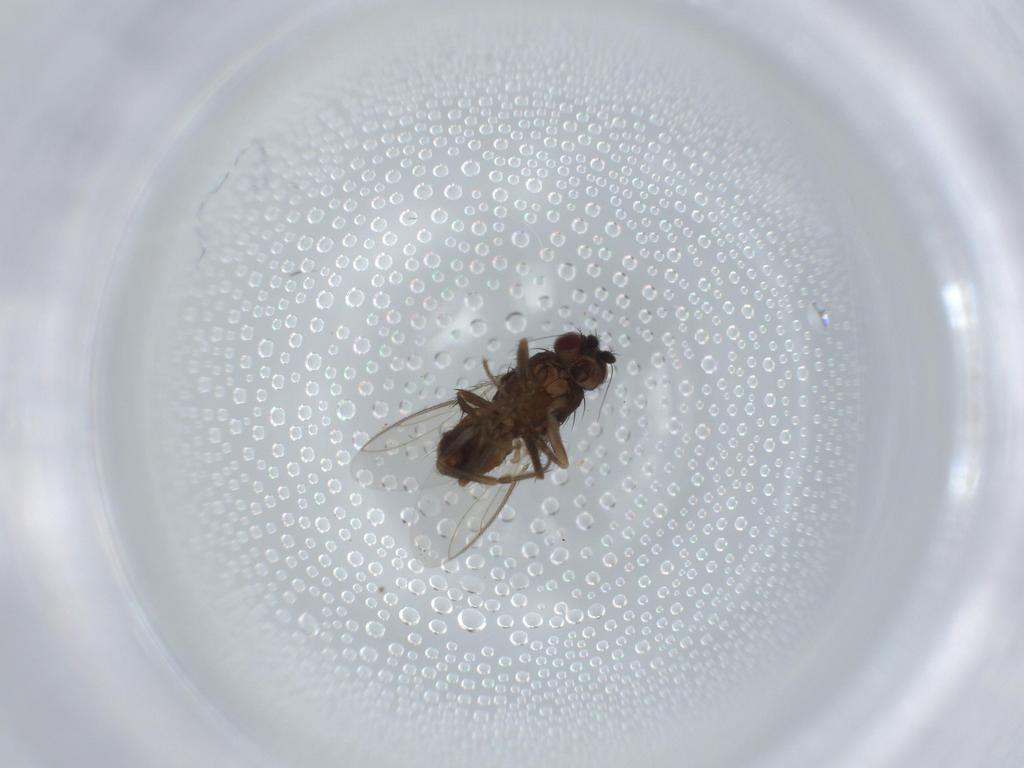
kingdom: Animalia
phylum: Arthropoda
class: Insecta
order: Diptera
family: Sphaeroceridae
